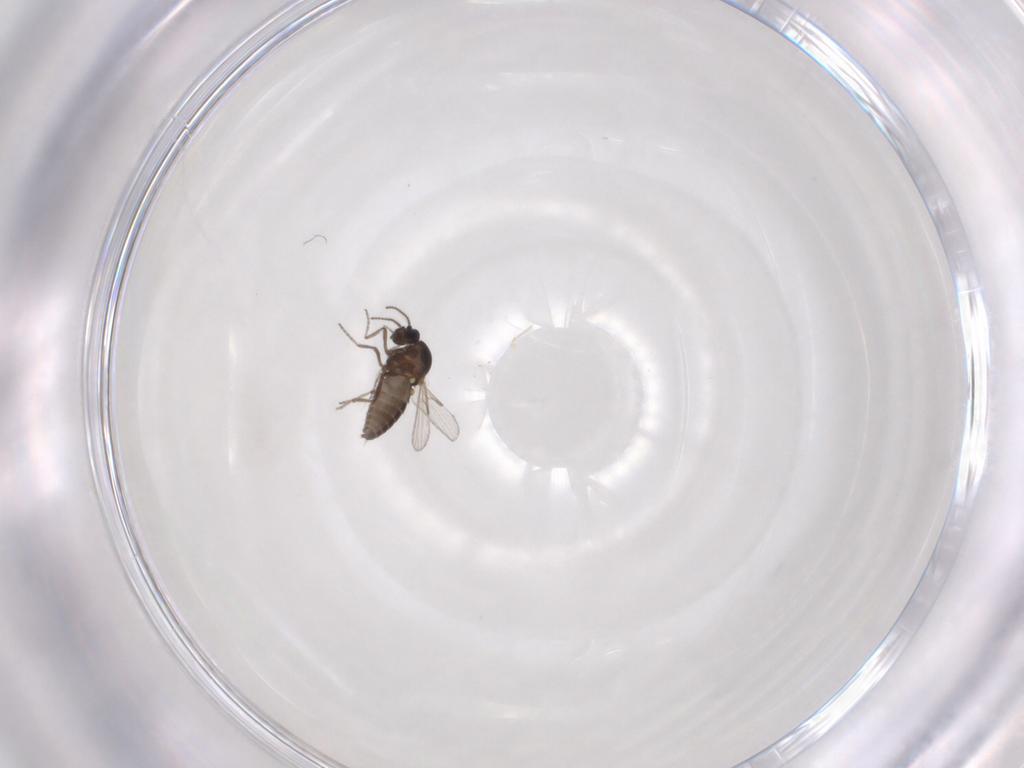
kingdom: Animalia
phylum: Arthropoda
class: Insecta
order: Diptera
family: Ceratopogonidae
